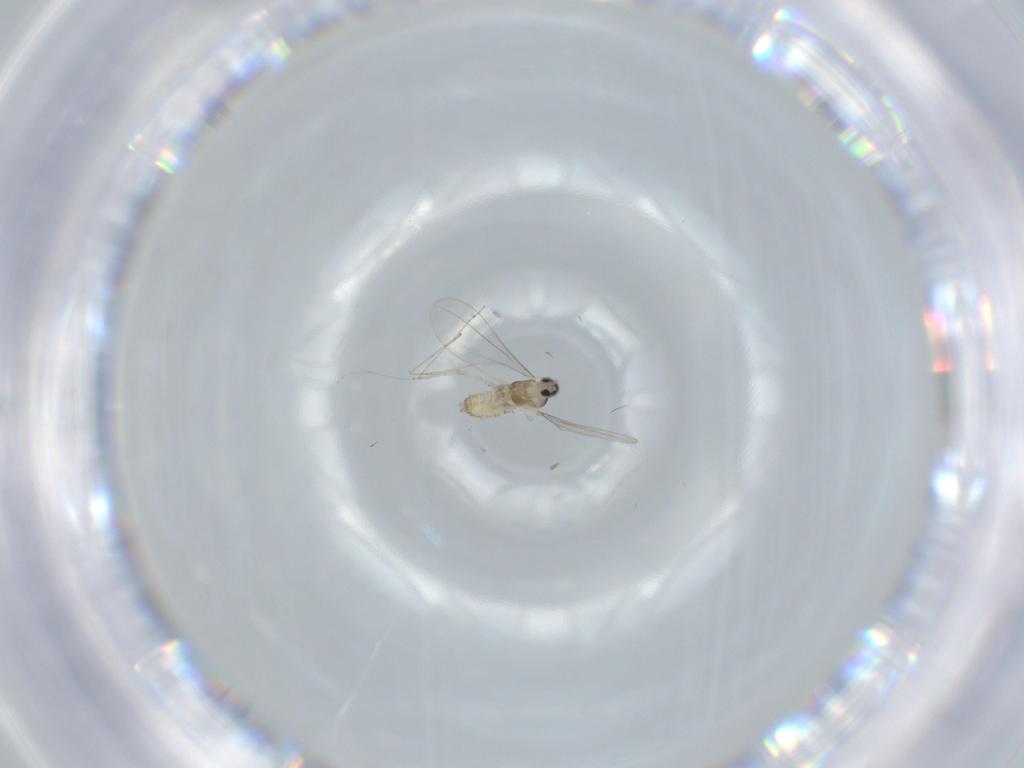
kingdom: Animalia
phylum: Arthropoda
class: Insecta
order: Diptera
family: Cecidomyiidae
